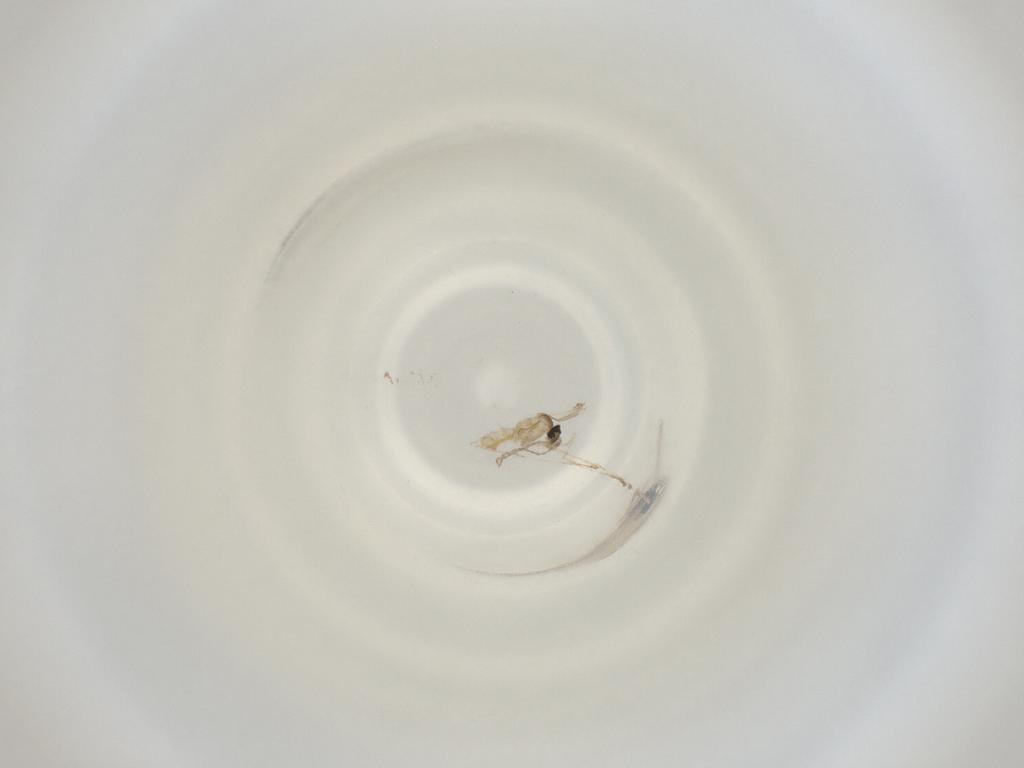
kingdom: Animalia
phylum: Arthropoda
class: Insecta
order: Diptera
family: Cecidomyiidae
